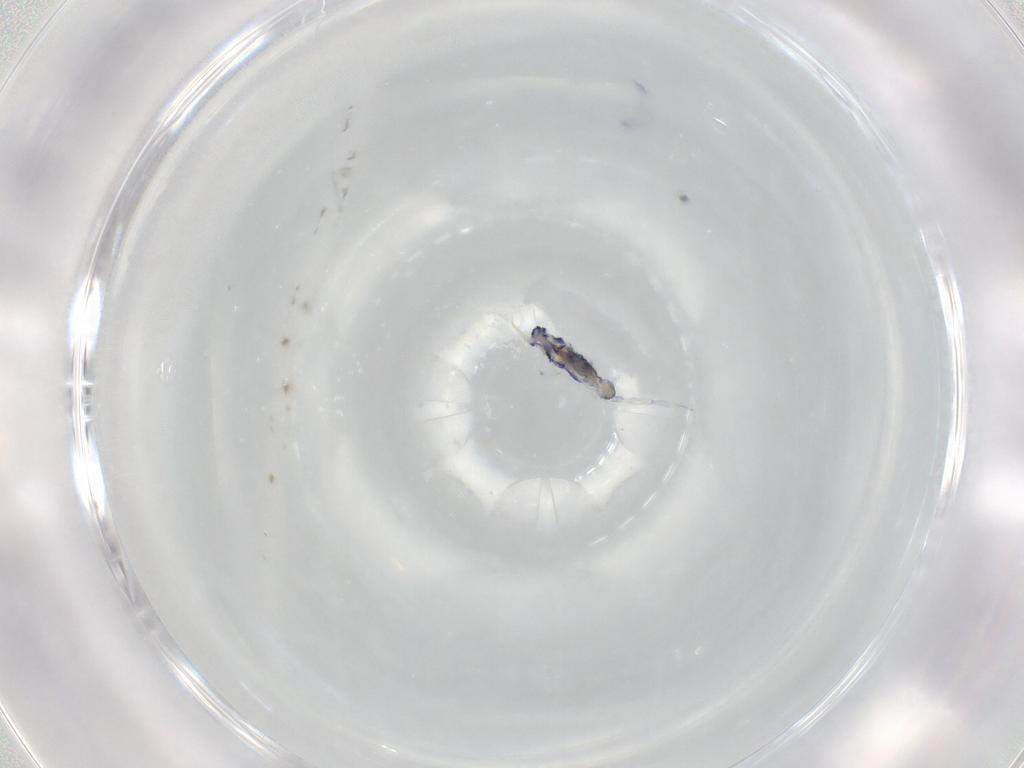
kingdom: Animalia
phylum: Arthropoda
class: Collembola
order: Entomobryomorpha
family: Entomobryidae
